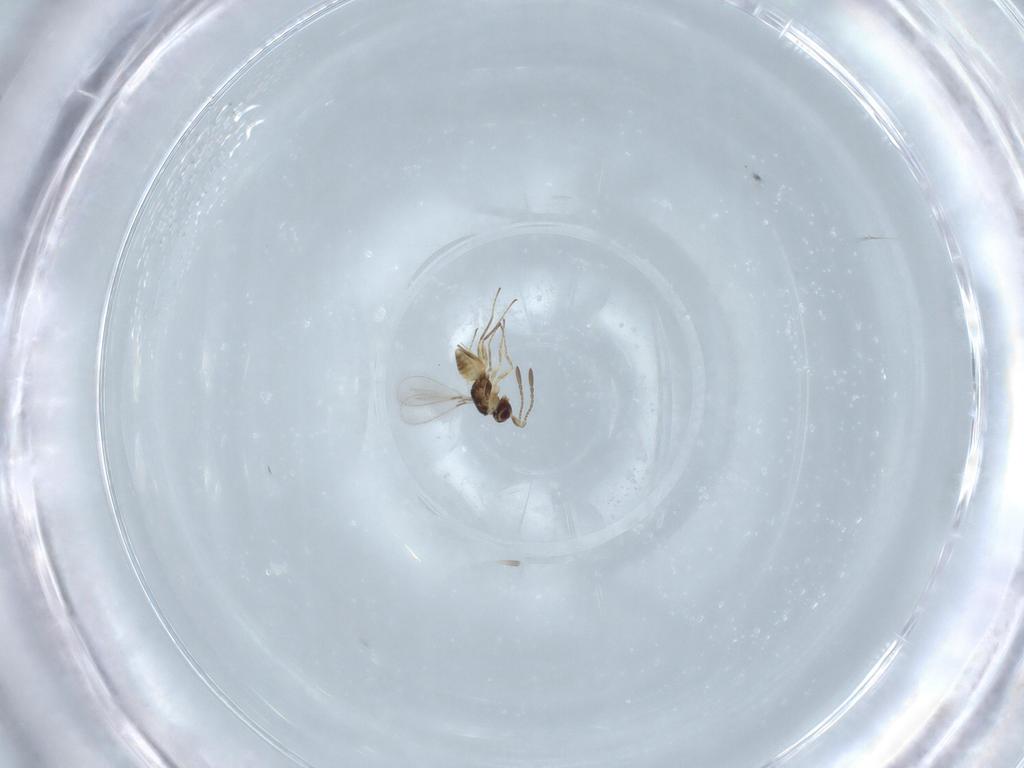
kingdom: Animalia
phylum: Arthropoda
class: Insecta
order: Hymenoptera
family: Mymaridae
